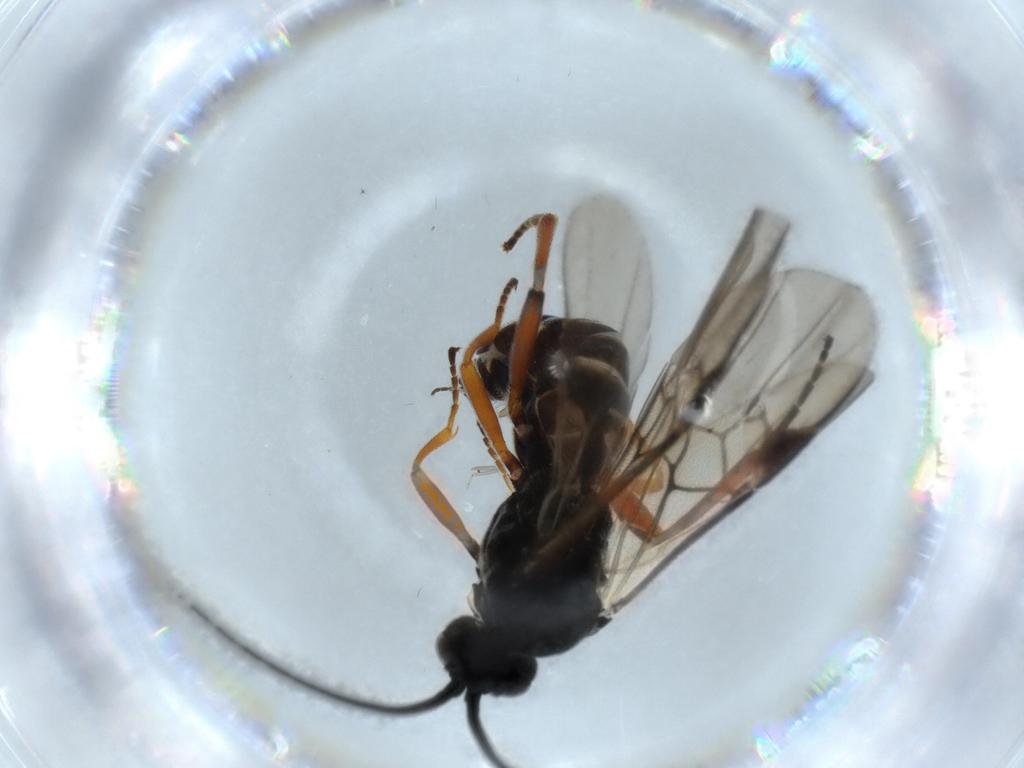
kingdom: Animalia
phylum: Arthropoda
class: Insecta
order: Hymenoptera
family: Braconidae
